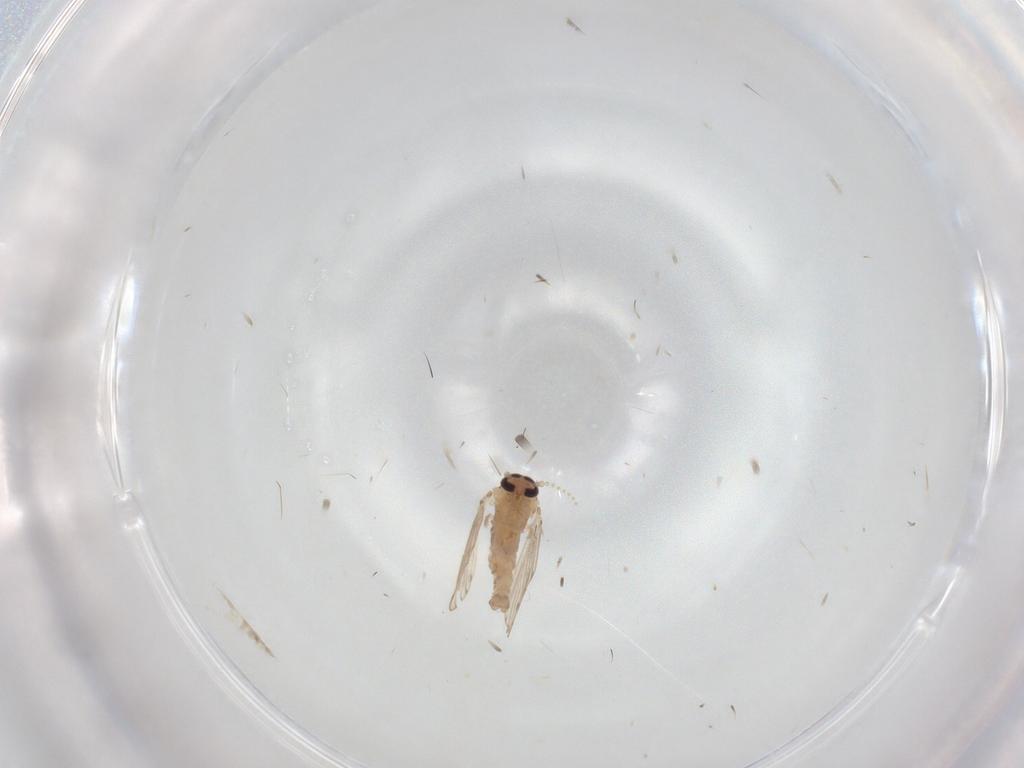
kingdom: Animalia
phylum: Arthropoda
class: Insecta
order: Diptera
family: Psychodidae
